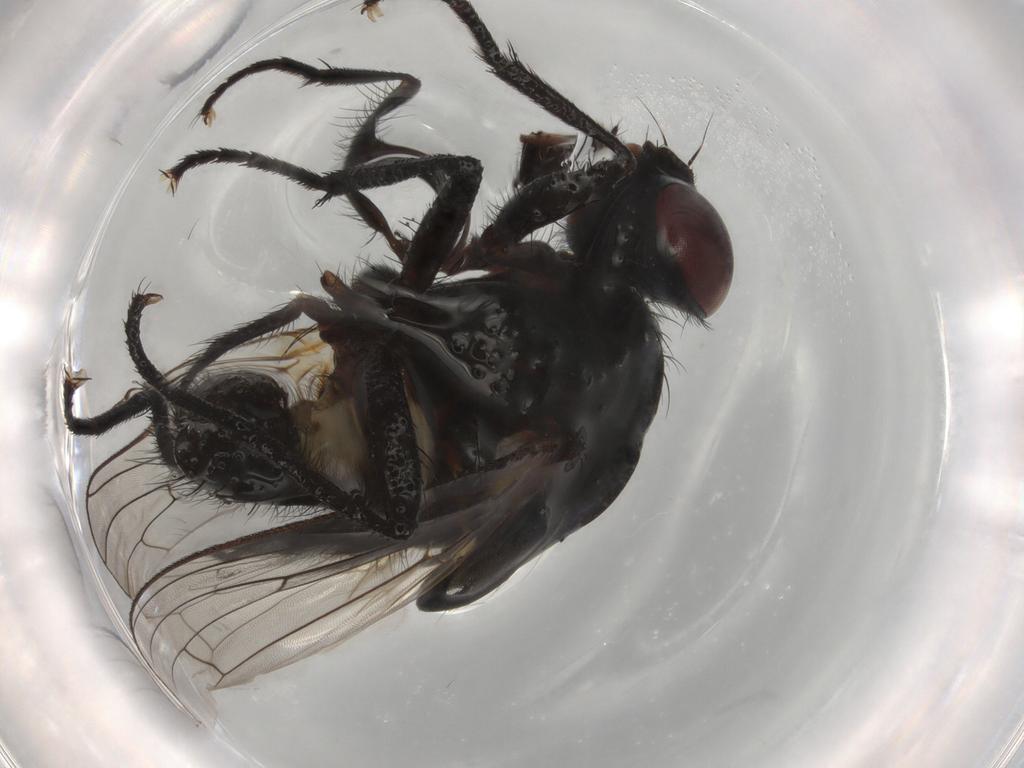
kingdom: Animalia
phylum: Arthropoda
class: Insecta
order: Diptera
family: Anthomyiidae
